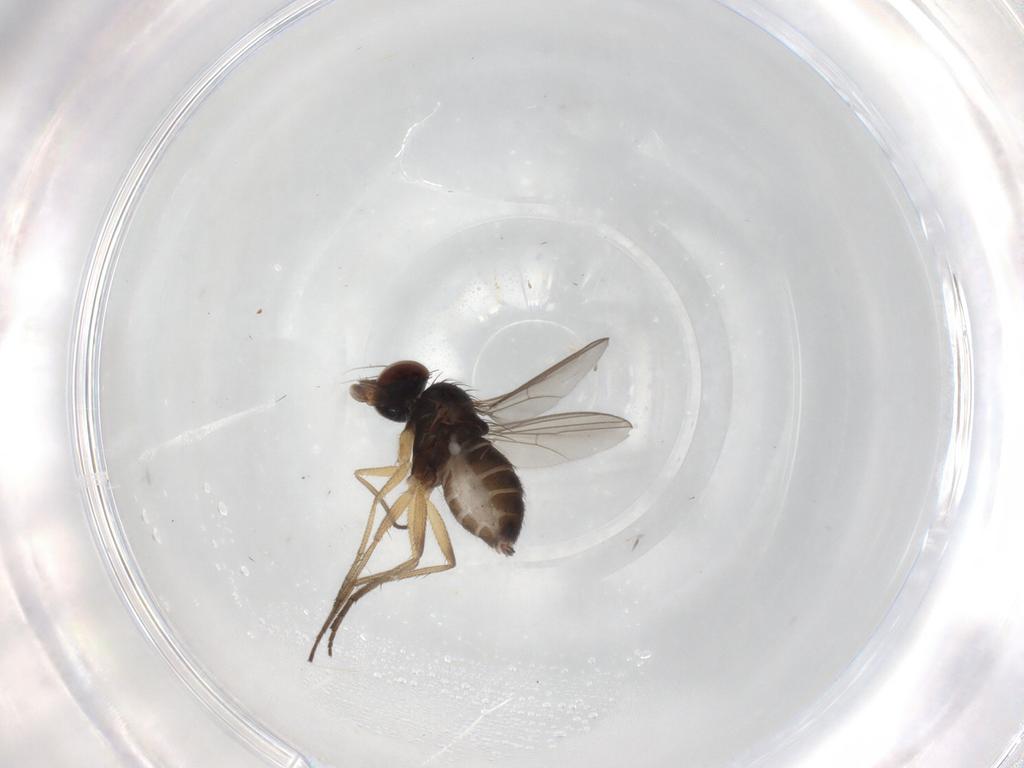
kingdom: Animalia
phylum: Arthropoda
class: Insecta
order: Diptera
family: Dolichopodidae
